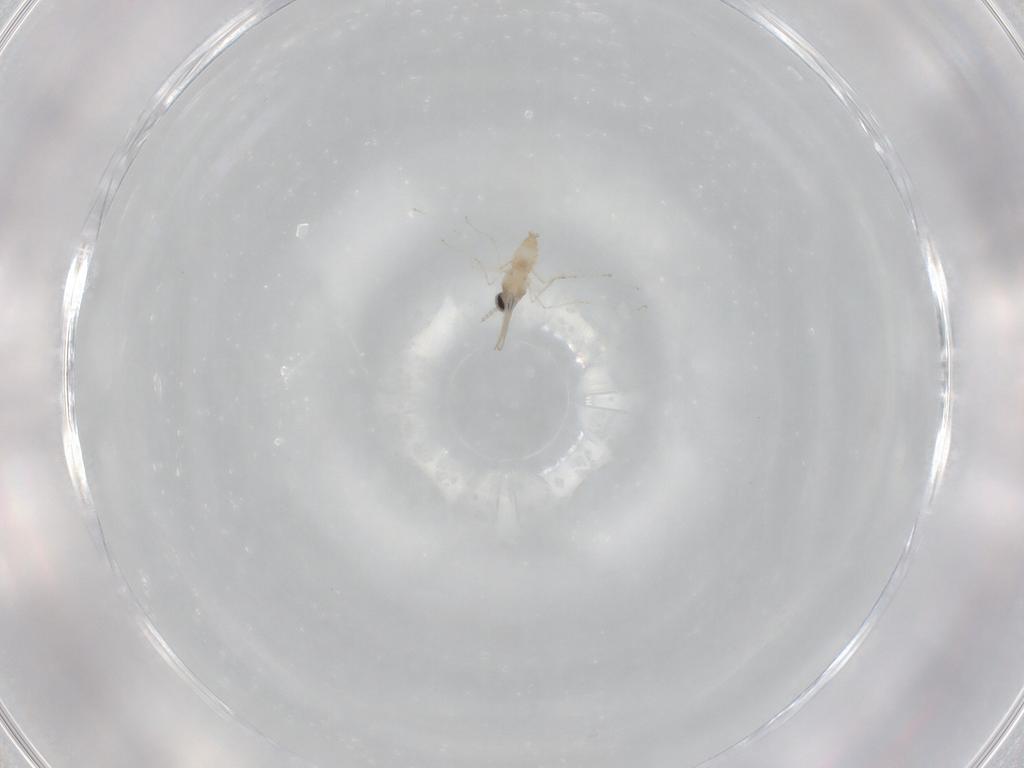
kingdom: Animalia
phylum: Arthropoda
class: Insecta
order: Diptera
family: Cecidomyiidae
